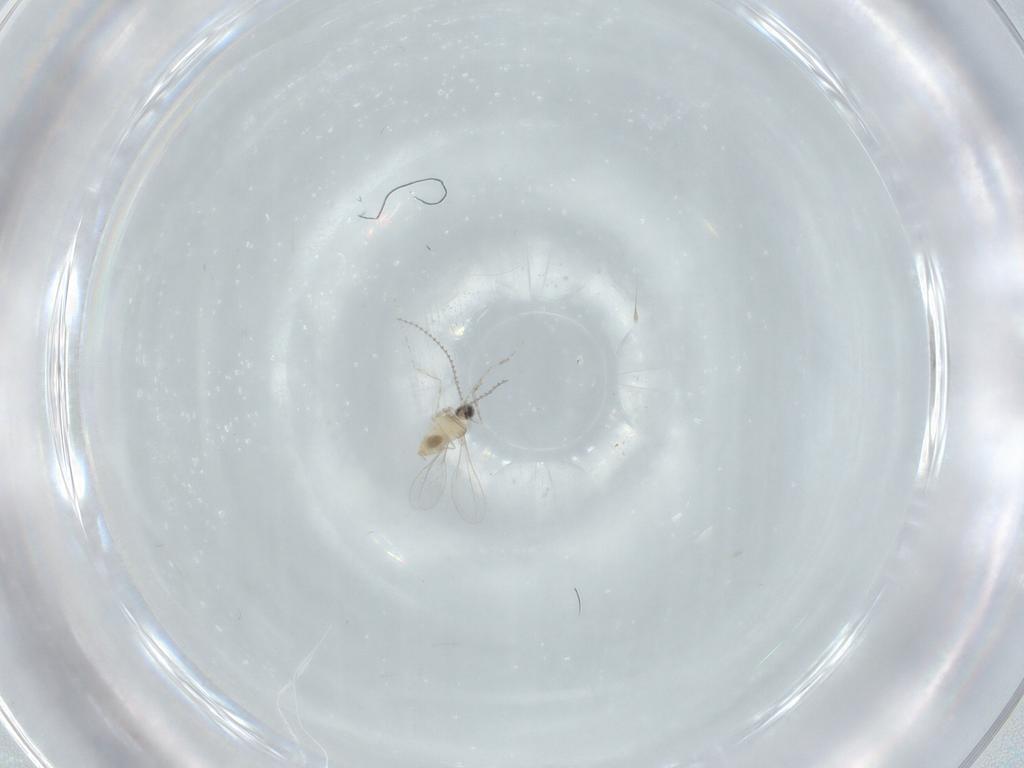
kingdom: Animalia
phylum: Arthropoda
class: Insecta
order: Diptera
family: Cecidomyiidae
